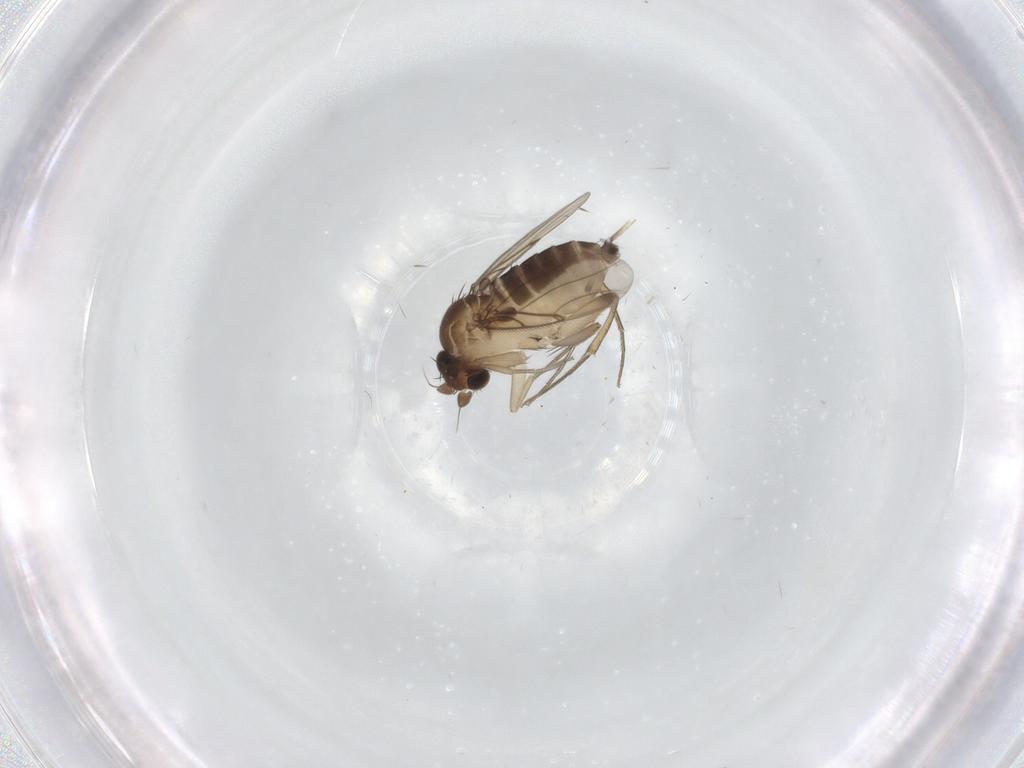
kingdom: Animalia
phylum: Arthropoda
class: Insecta
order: Diptera
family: Phoridae
